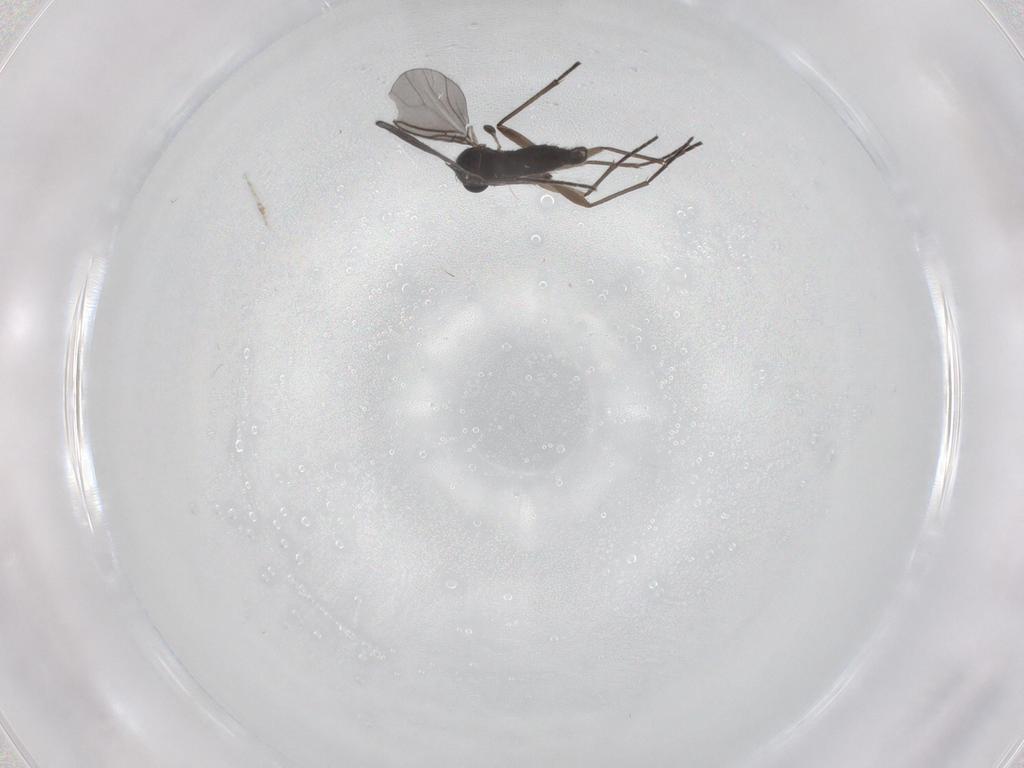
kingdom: Animalia
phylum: Arthropoda
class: Insecta
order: Diptera
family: Sciaridae
